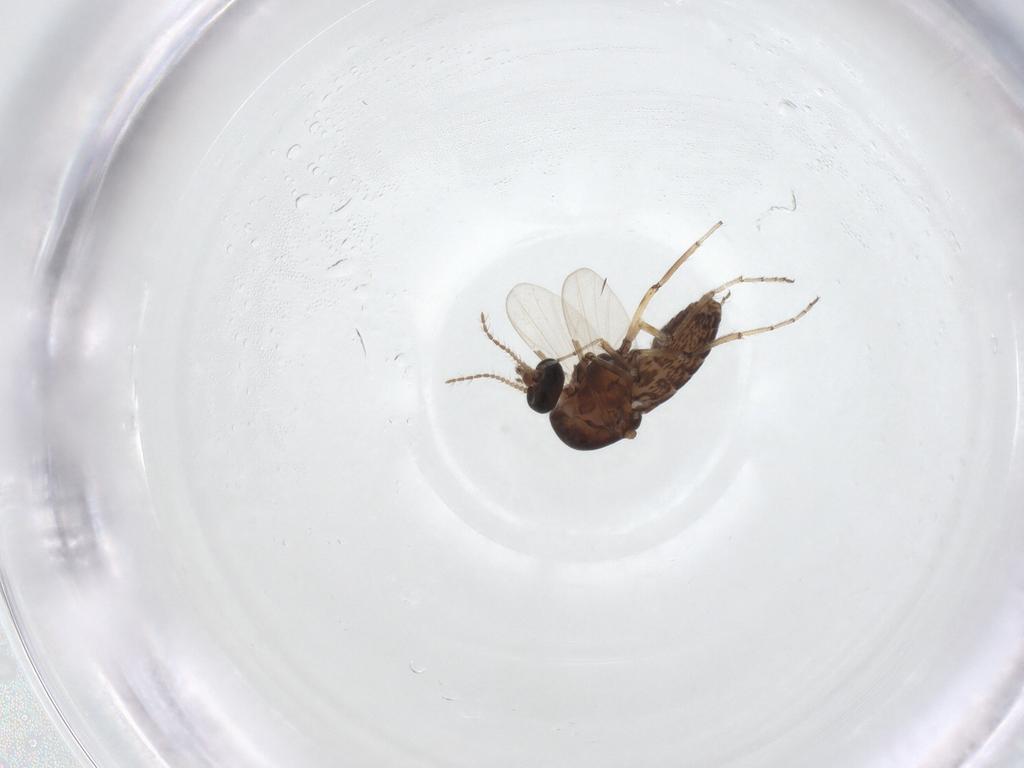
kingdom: Animalia
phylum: Arthropoda
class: Insecta
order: Diptera
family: Ceratopogonidae
